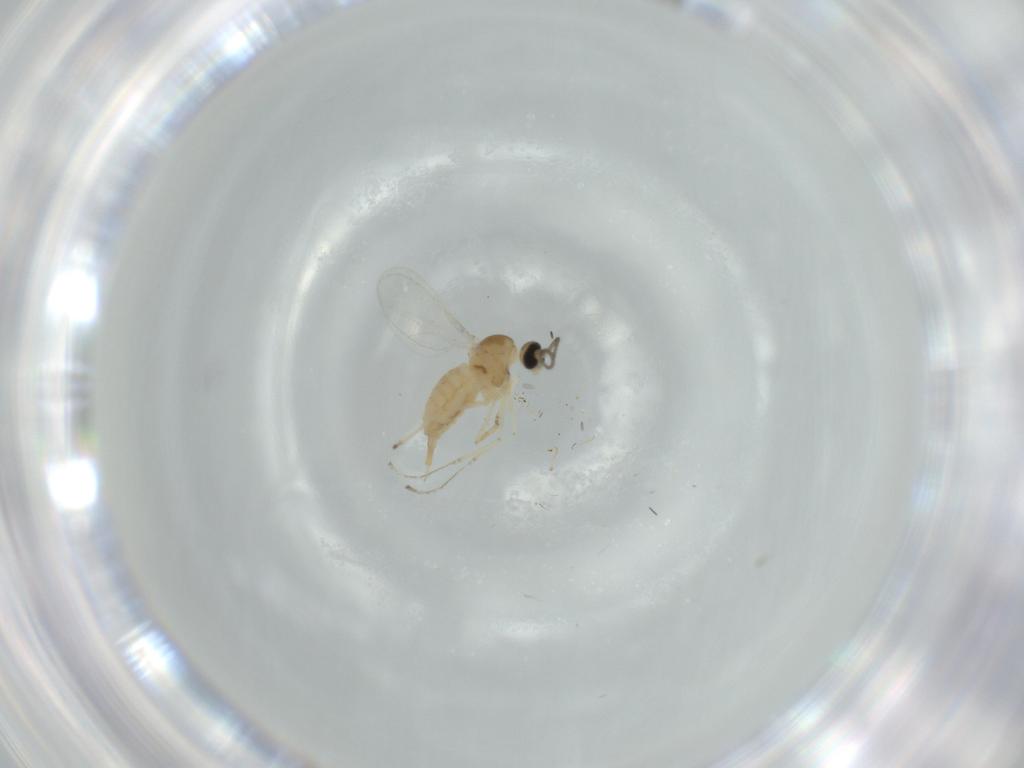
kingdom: Animalia
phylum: Arthropoda
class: Insecta
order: Diptera
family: Cecidomyiidae
